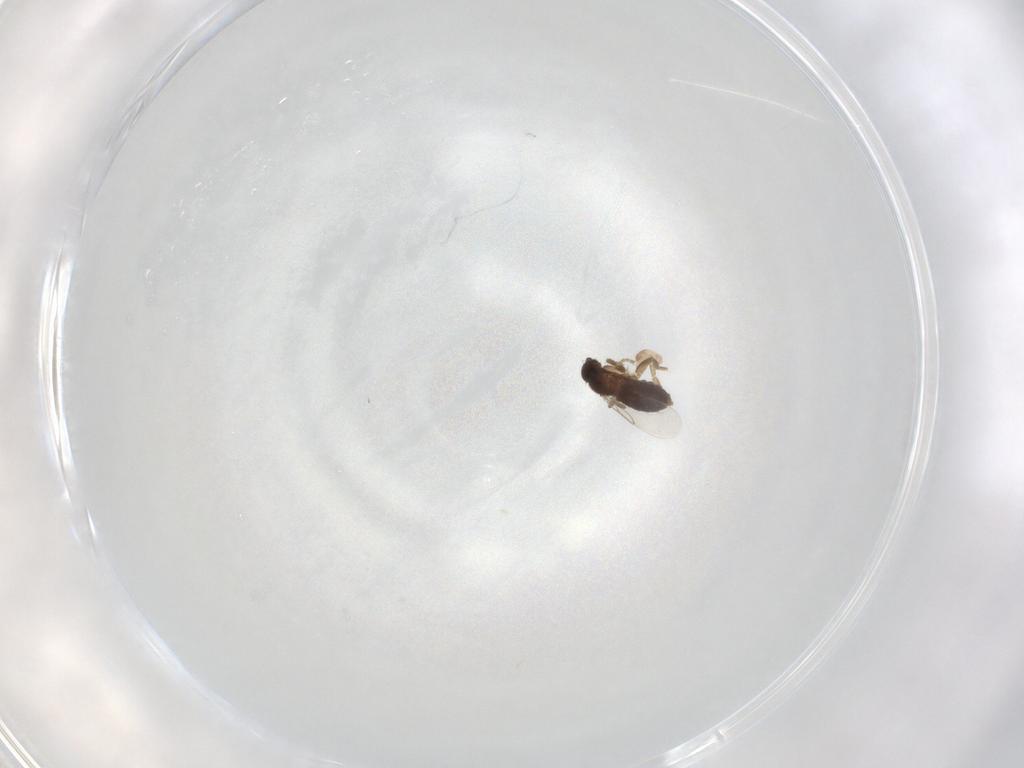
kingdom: Animalia
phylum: Arthropoda
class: Insecta
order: Diptera
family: Phoridae
